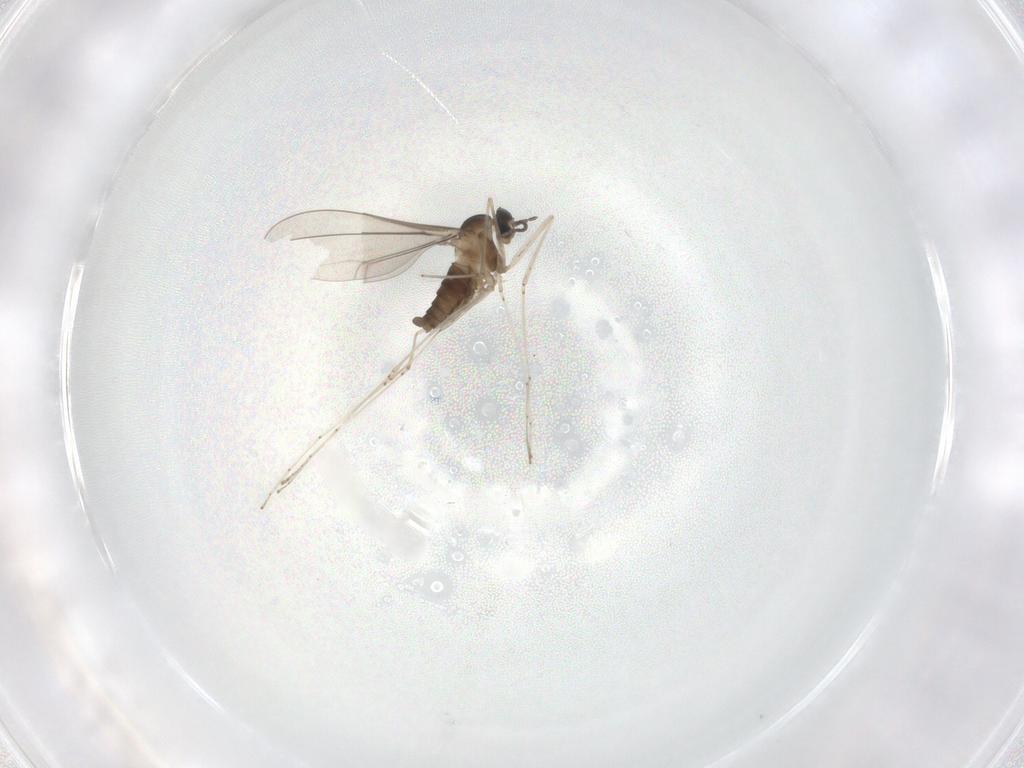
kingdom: Animalia
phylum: Arthropoda
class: Insecta
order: Diptera
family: Cecidomyiidae
